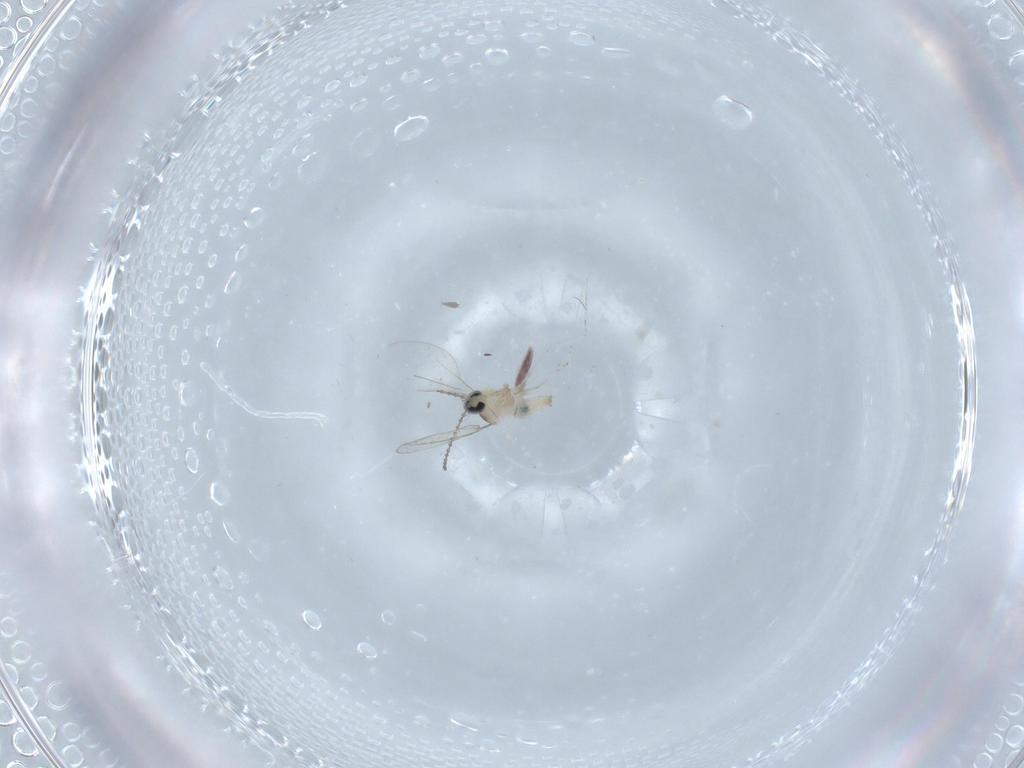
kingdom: Animalia
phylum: Arthropoda
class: Insecta
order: Diptera
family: Cecidomyiidae
